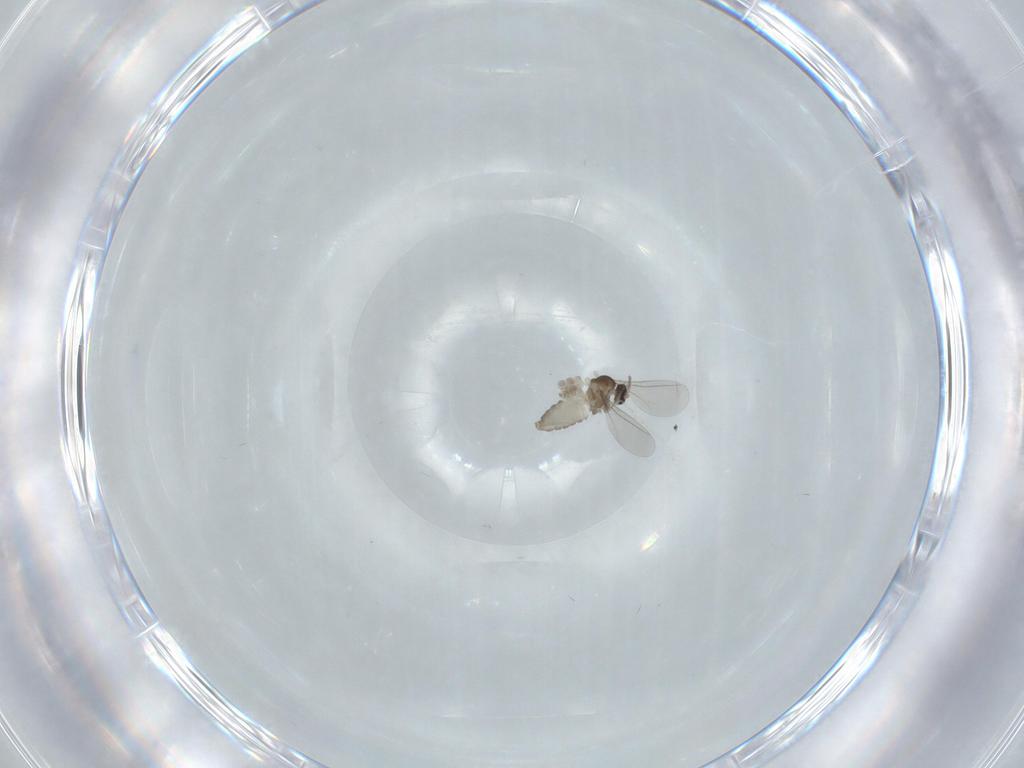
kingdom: Animalia
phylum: Arthropoda
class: Insecta
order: Diptera
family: Cecidomyiidae
